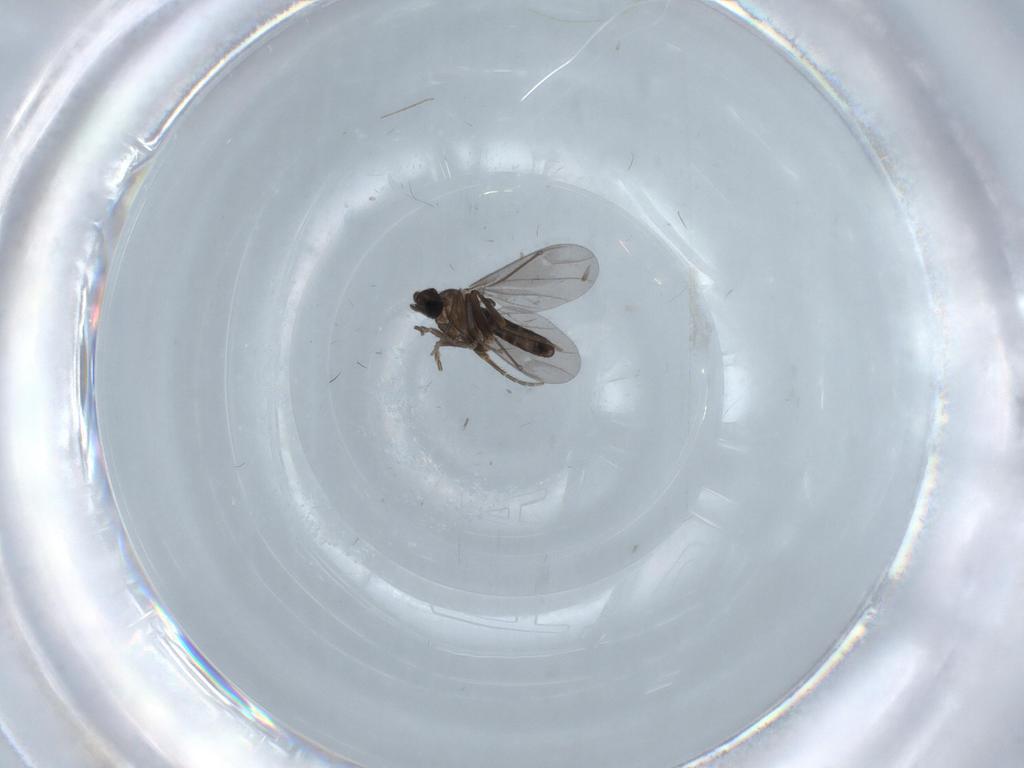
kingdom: Animalia
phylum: Arthropoda
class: Insecta
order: Diptera
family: Chironomidae
